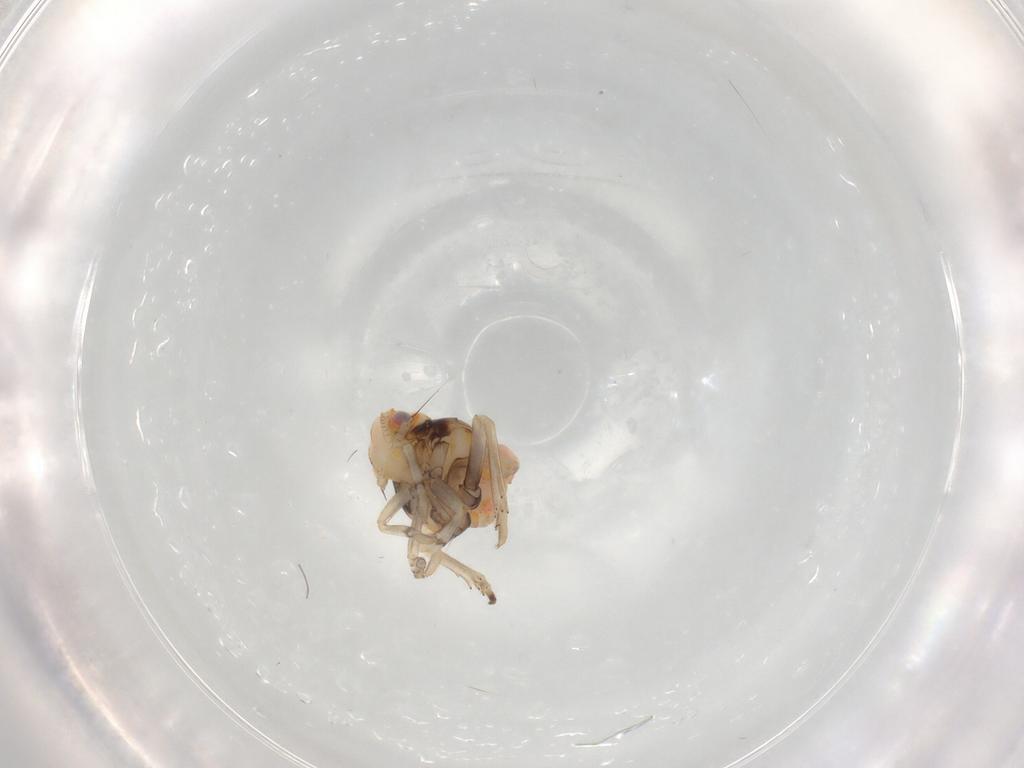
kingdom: Animalia
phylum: Arthropoda
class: Insecta
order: Hemiptera
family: Ricaniidae
